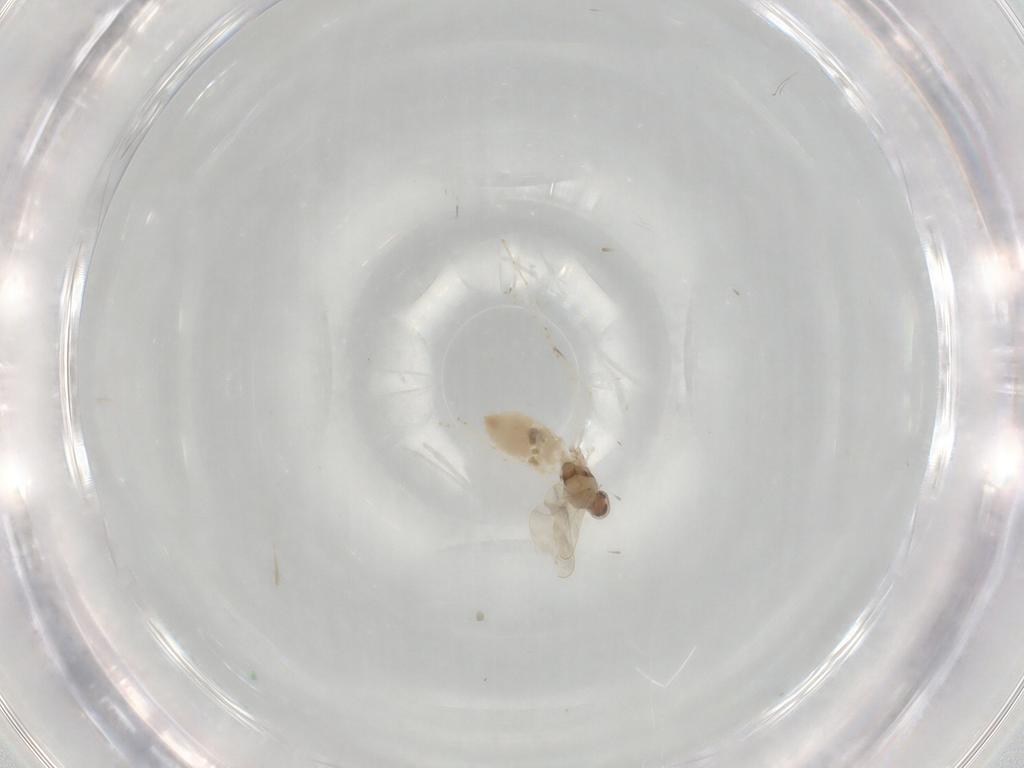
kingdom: Animalia
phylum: Arthropoda
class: Insecta
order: Diptera
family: Cecidomyiidae
